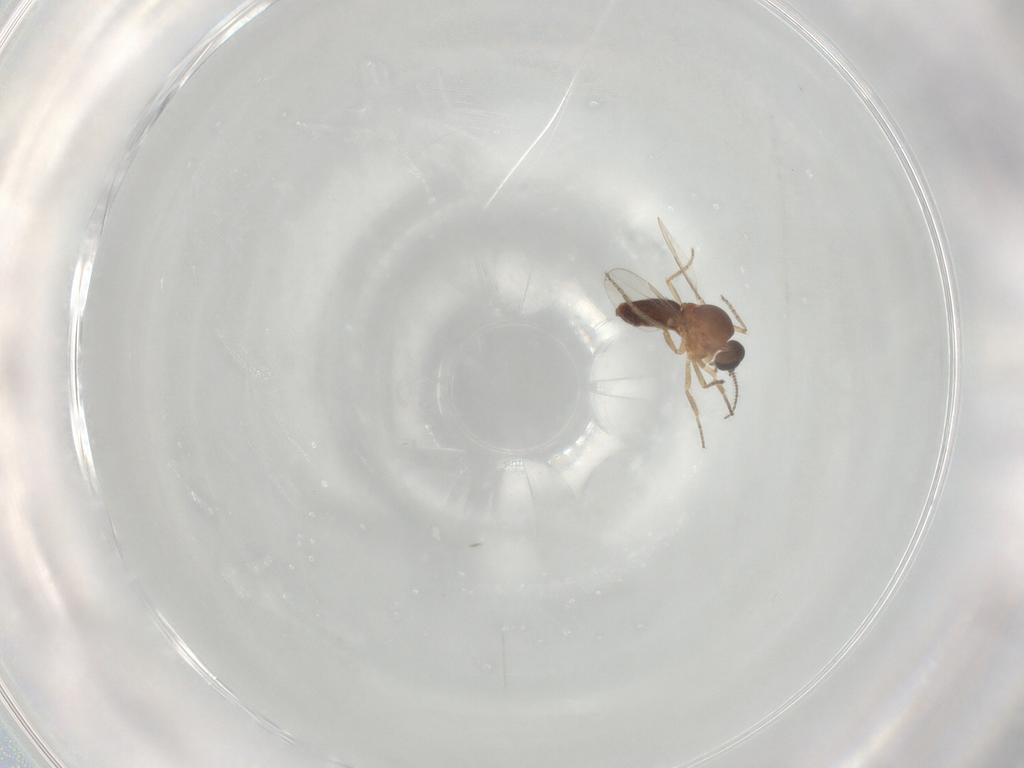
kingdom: Animalia
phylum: Arthropoda
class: Insecta
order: Diptera
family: Ceratopogonidae
